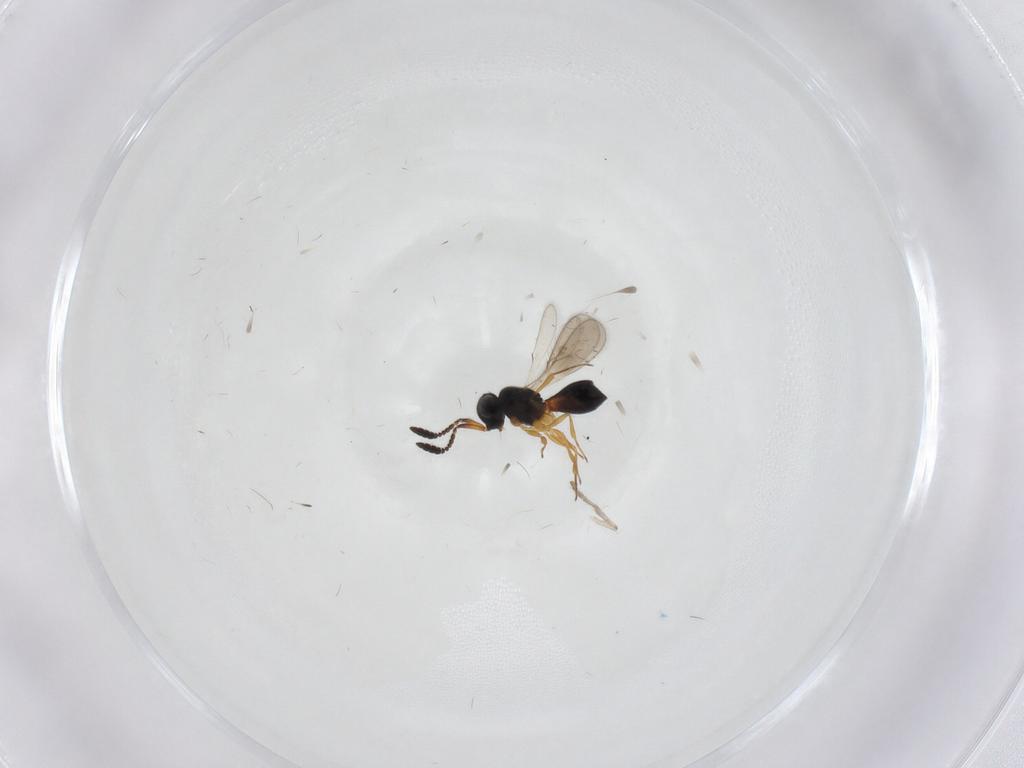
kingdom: Animalia
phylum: Arthropoda
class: Insecta
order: Hymenoptera
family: Scelionidae
